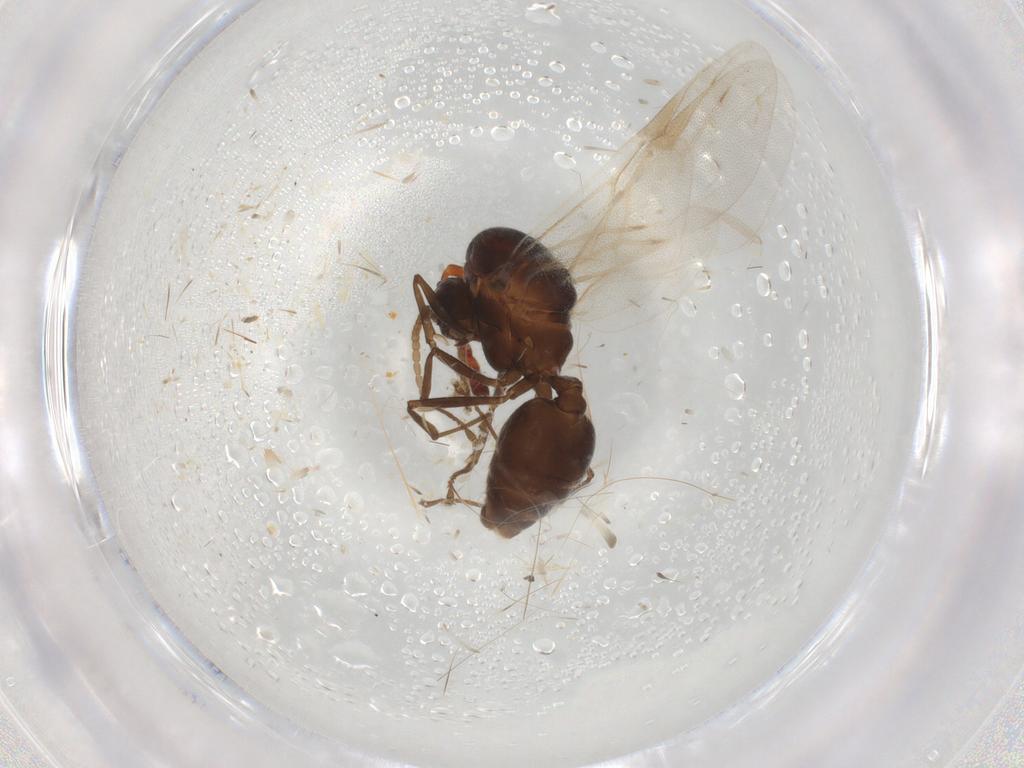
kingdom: Animalia
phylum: Arthropoda
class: Insecta
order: Hymenoptera
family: Formicidae
